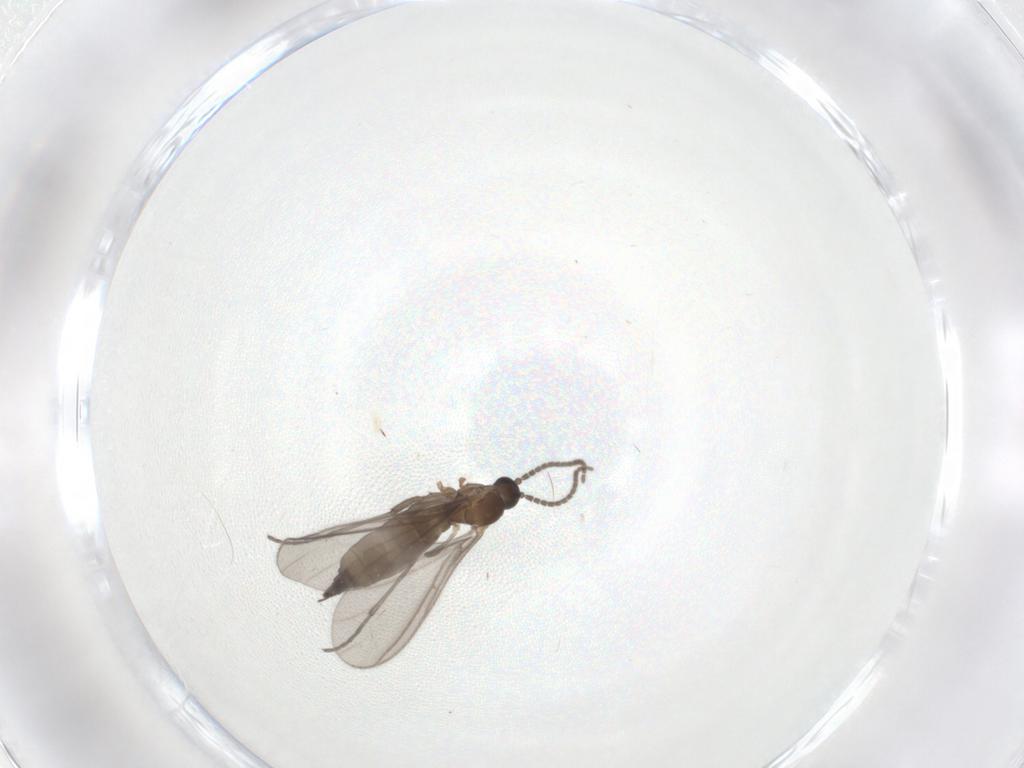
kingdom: Animalia
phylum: Arthropoda
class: Insecta
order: Diptera
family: Sciaridae
